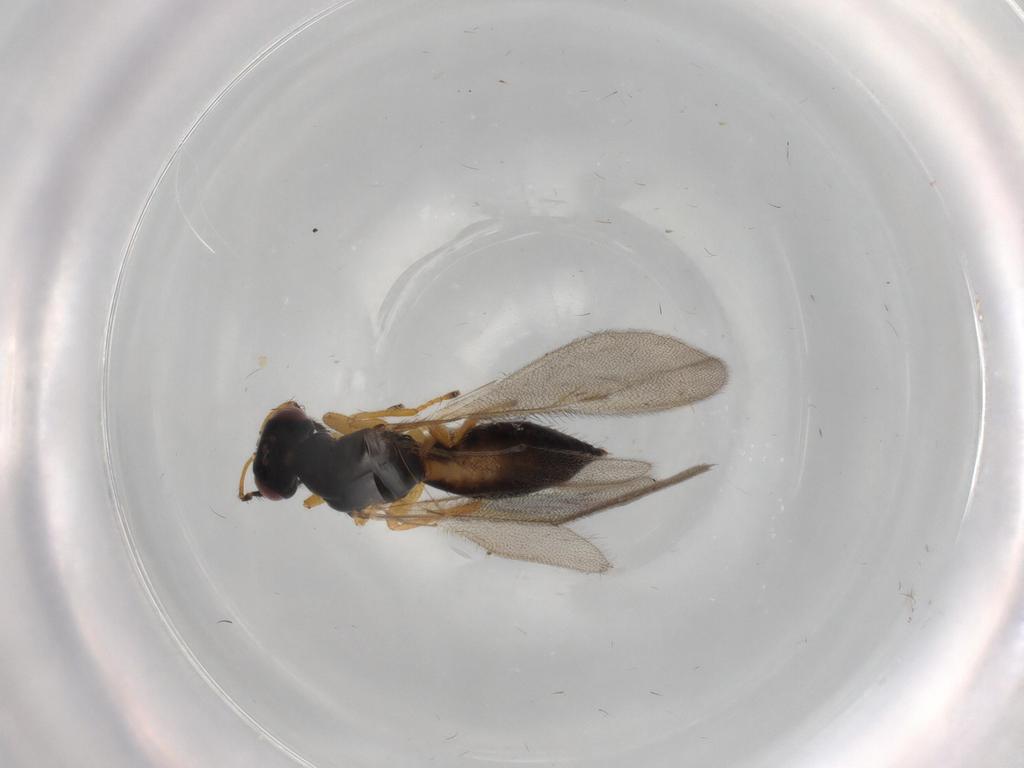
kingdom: Animalia
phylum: Arthropoda
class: Insecta
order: Hymenoptera
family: Eulophidae
